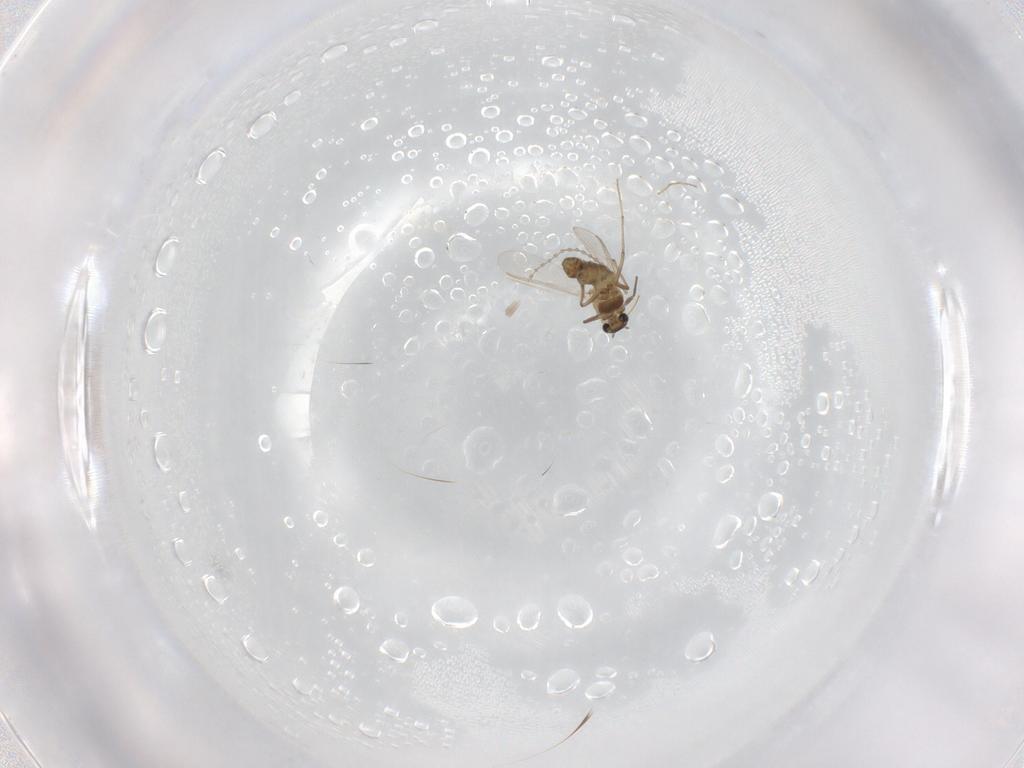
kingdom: Animalia
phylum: Arthropoda
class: Insecta
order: Diptera
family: Chironomidae
